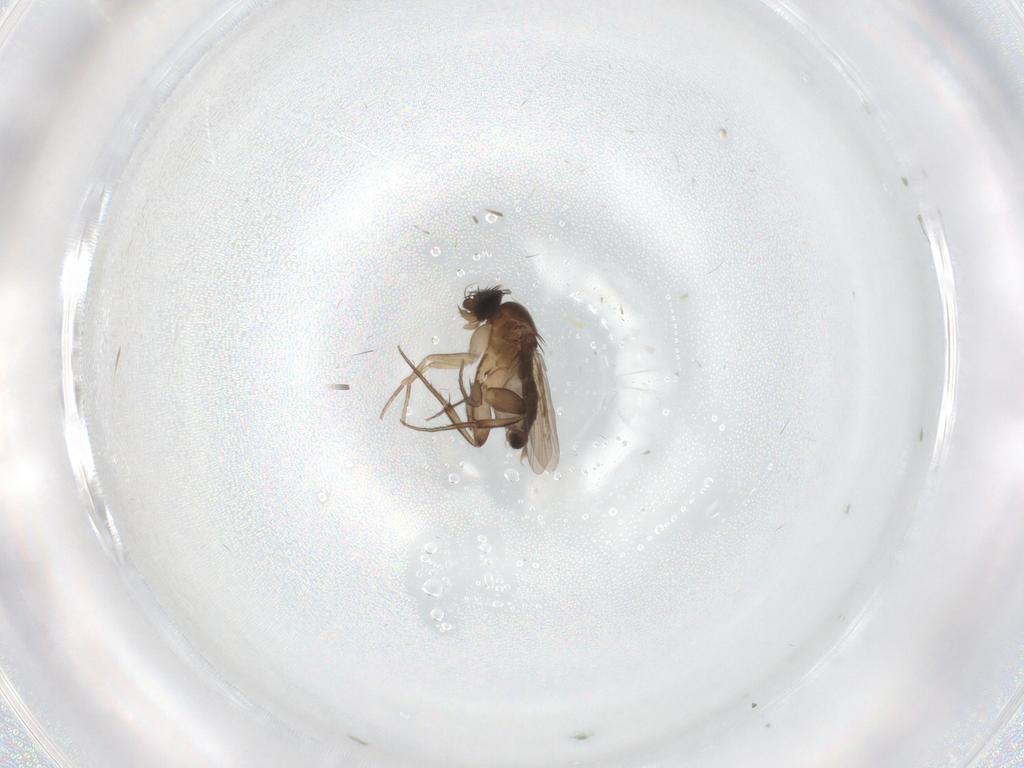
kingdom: Animalia
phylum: Arthropoda
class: Insecta
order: Diptera
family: Phoridae
